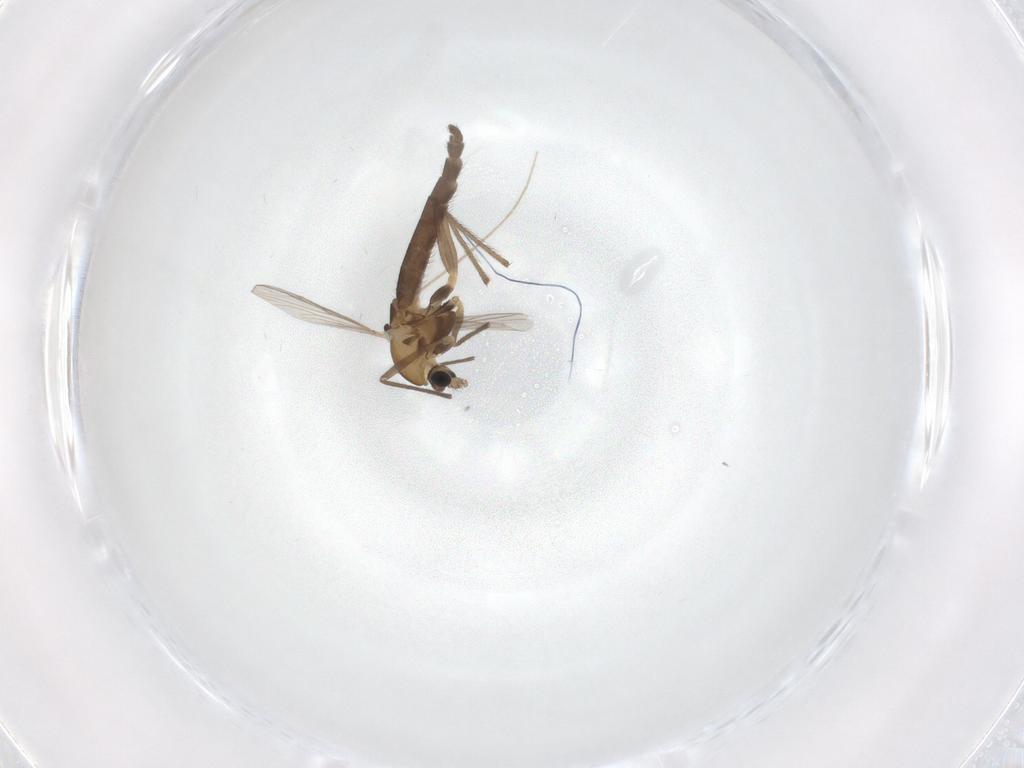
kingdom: Animalia
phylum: Arthropoda
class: Insecta
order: Diptera
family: Chironomidae
